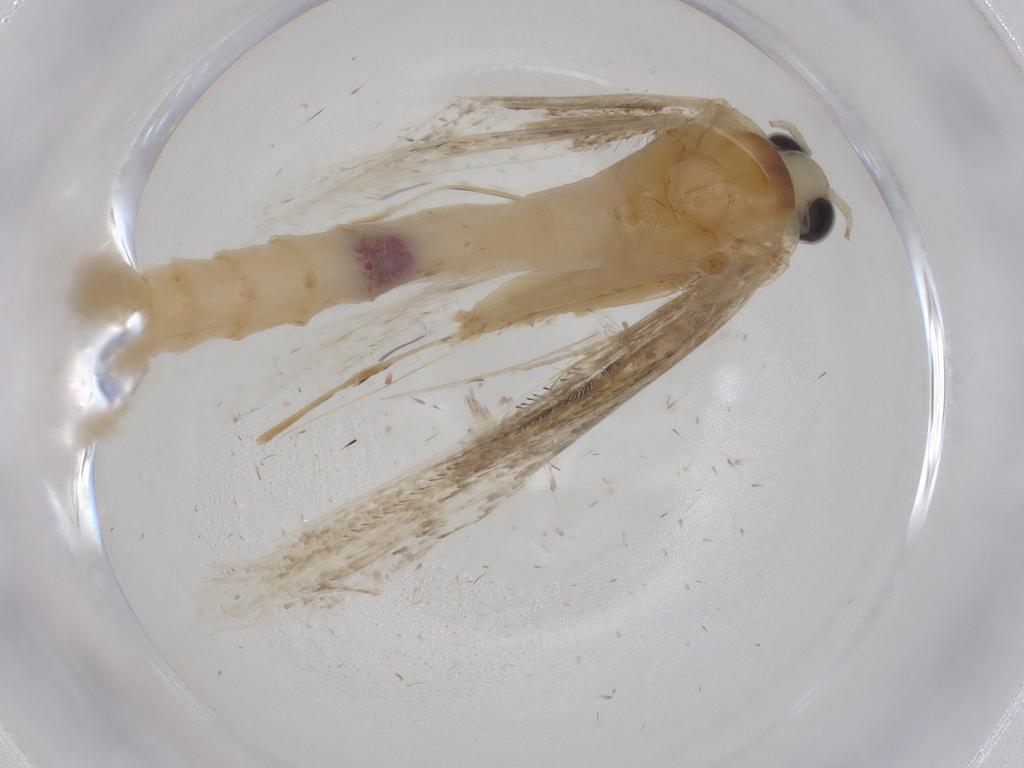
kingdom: Animalia
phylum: Arthropoda
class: Insecta
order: Lepidoptera
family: Pterophoridae
